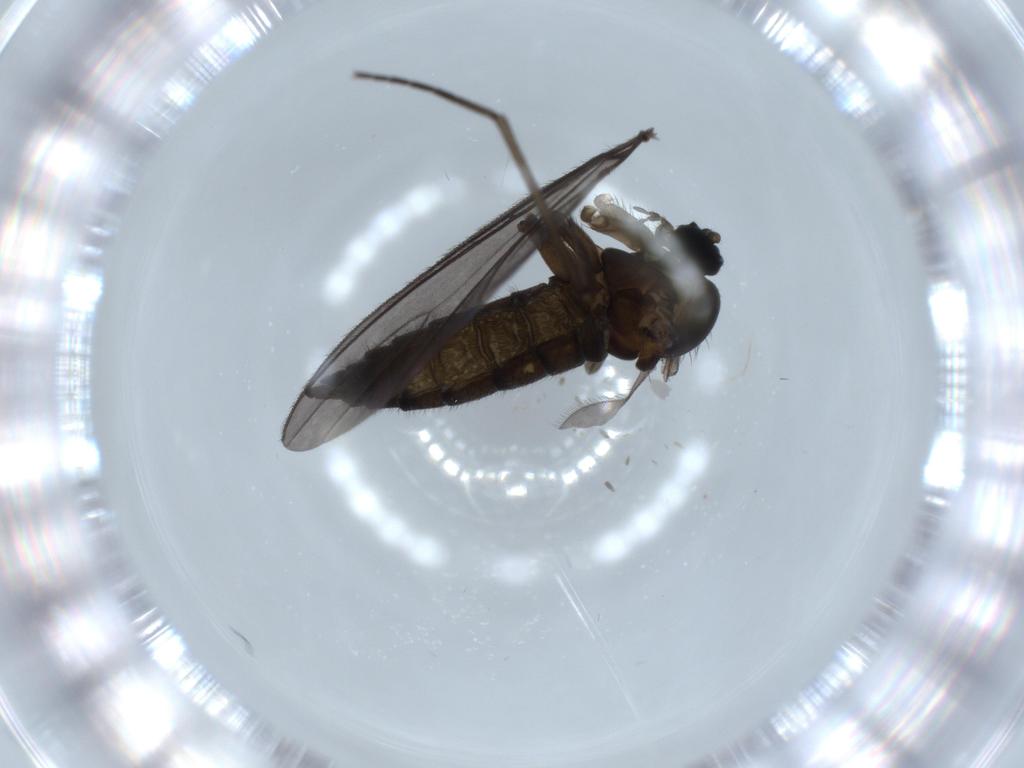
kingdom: Animalia
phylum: Arthropoda
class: Insecta
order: Diptera
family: Sciaridae
